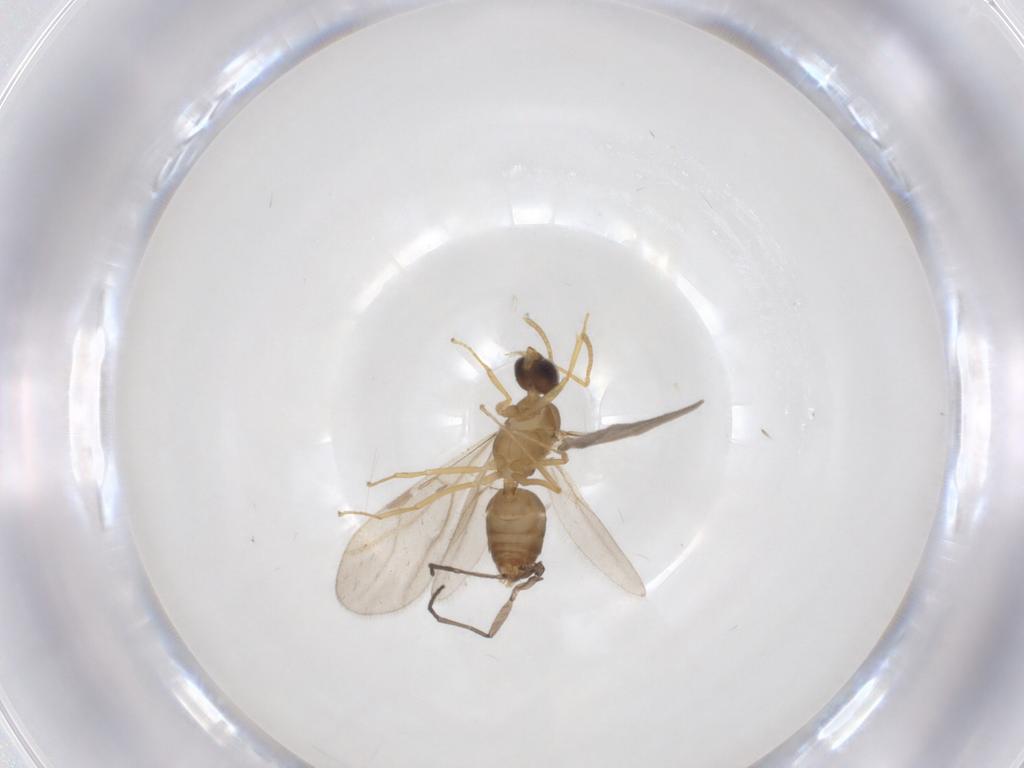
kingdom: Animalia
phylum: Arthropoda
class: Insecta
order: Hymenoptera
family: Formicidae
